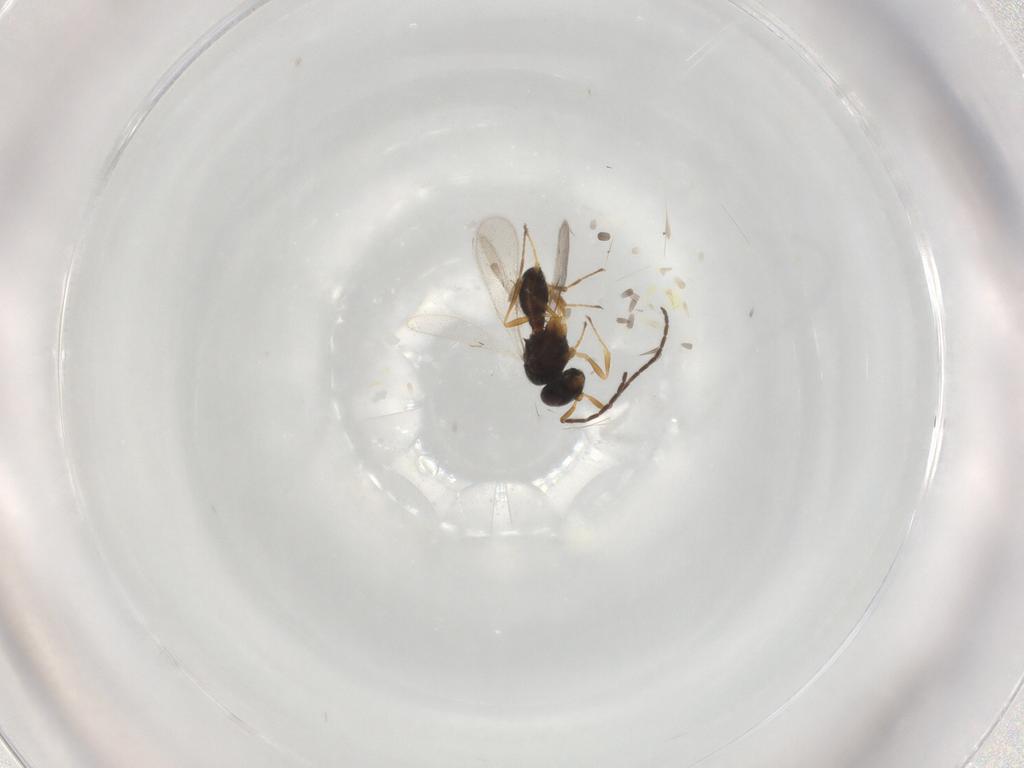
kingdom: Animalia
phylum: Arthropoda
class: Insecta
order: Hymenoptera
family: Scelionidae
